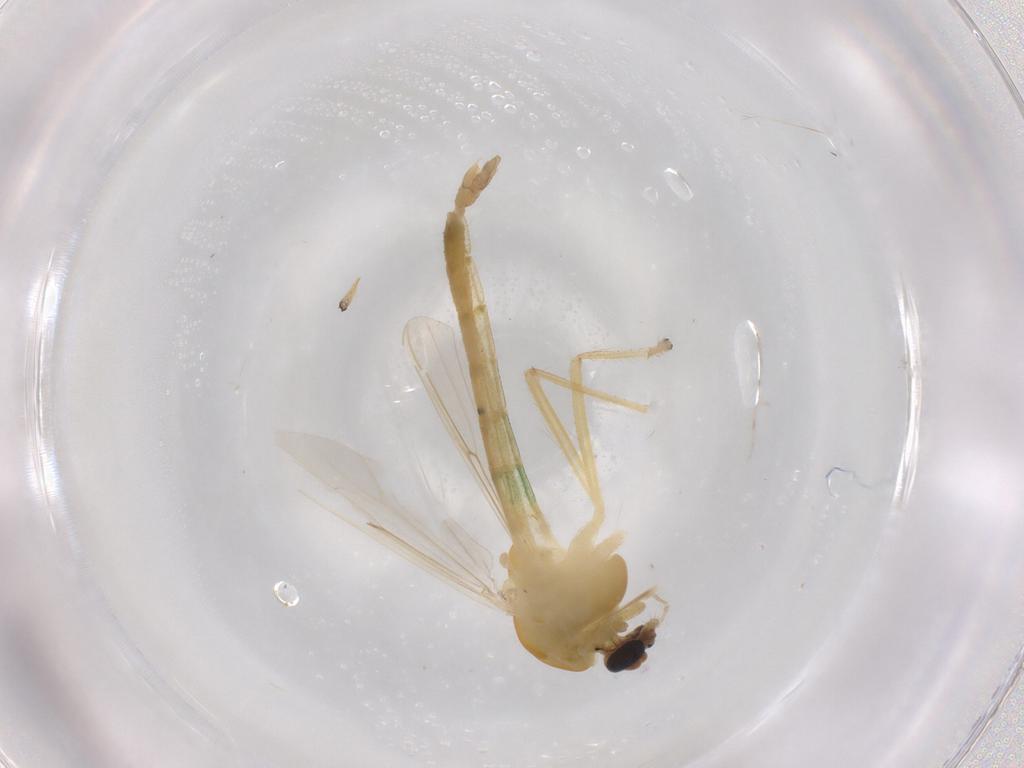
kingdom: Animalia
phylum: Arthropoda
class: Insecta
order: Diptera
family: Chironomidae
